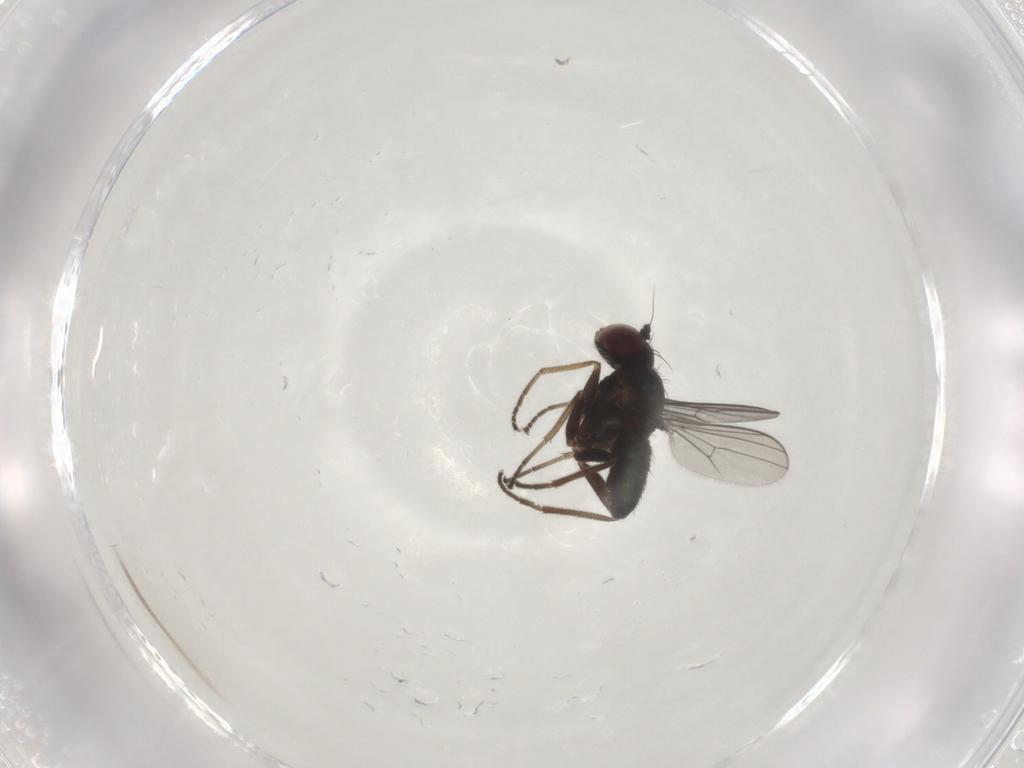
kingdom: Animalia
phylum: Arthropoda
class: Insecta
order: Diptera
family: Dolichopodidae
